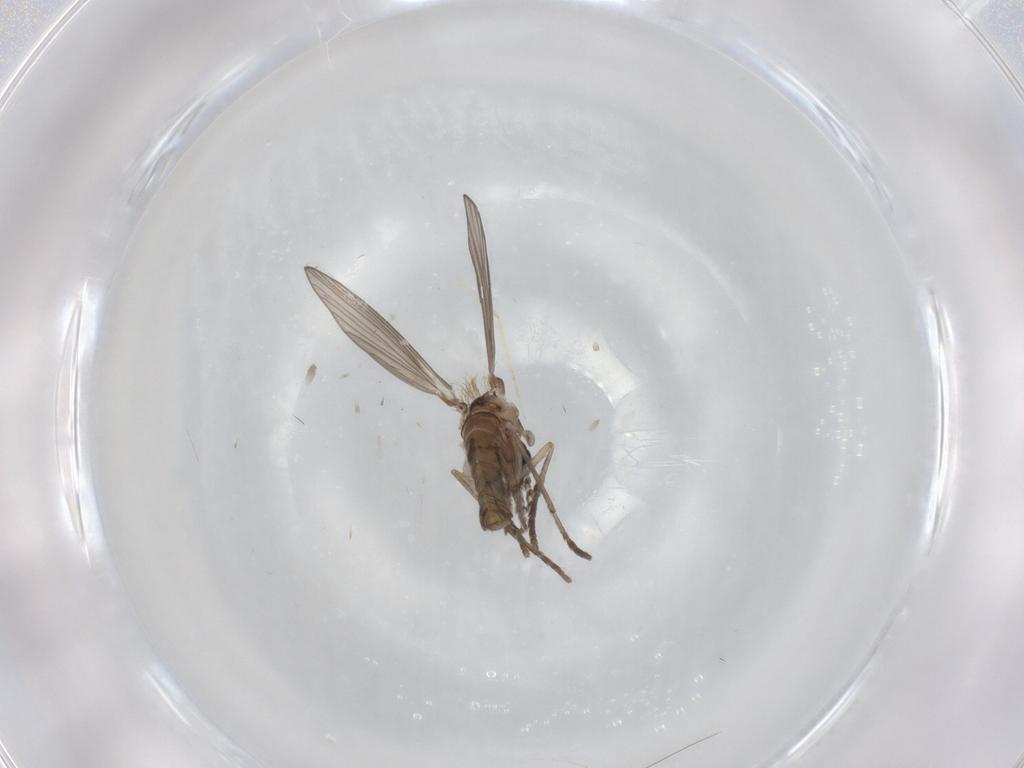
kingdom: Animalia
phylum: Arthropoda
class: Insecta
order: Diptera
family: Psychodidae
